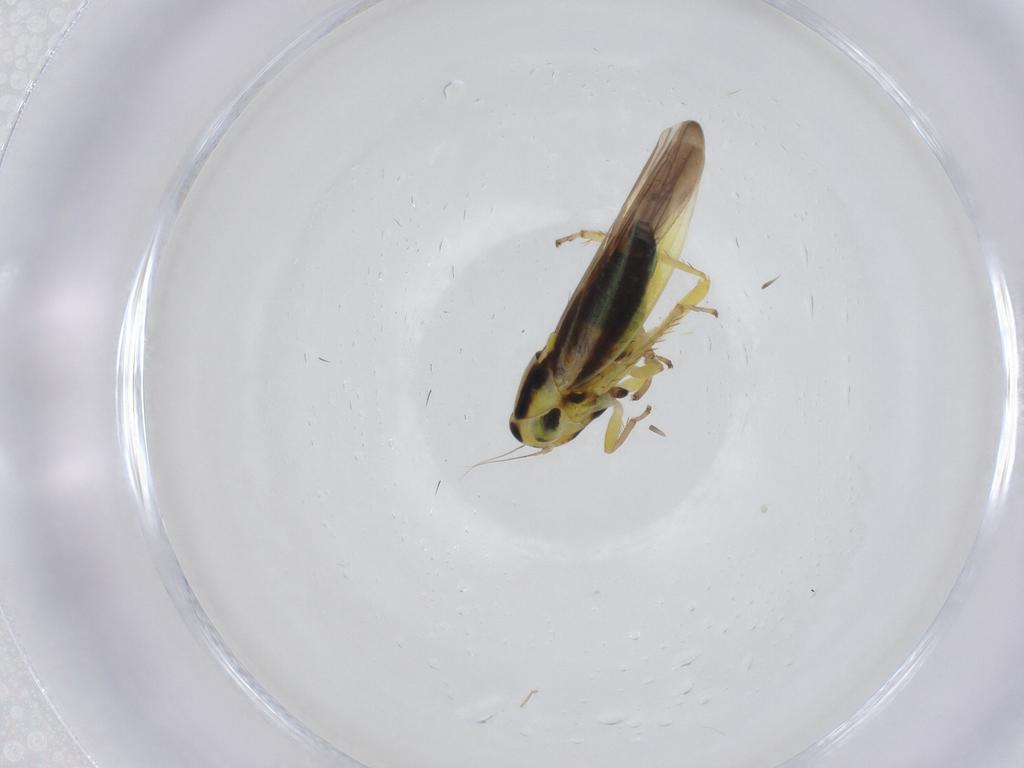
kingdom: Animalia
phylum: Arthropoda
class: Insecta
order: Hemiptera
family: Cicadellidae
